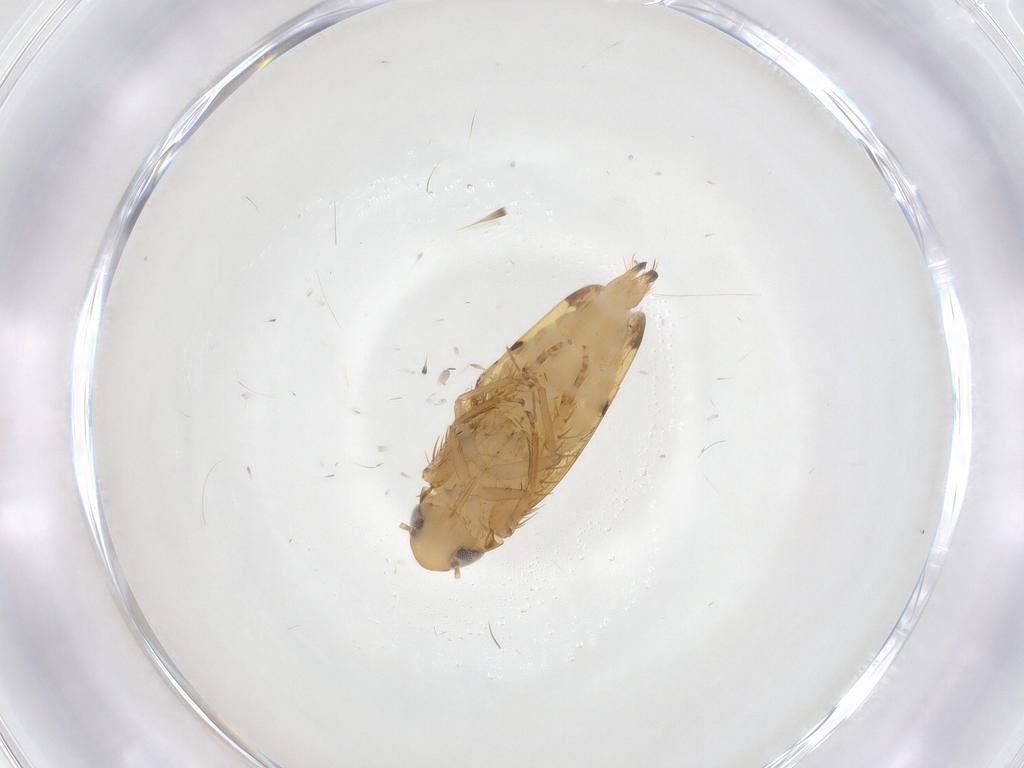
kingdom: Animalia
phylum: Arthropoda
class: Insecta
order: Hemiptera
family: Cicadellidae
